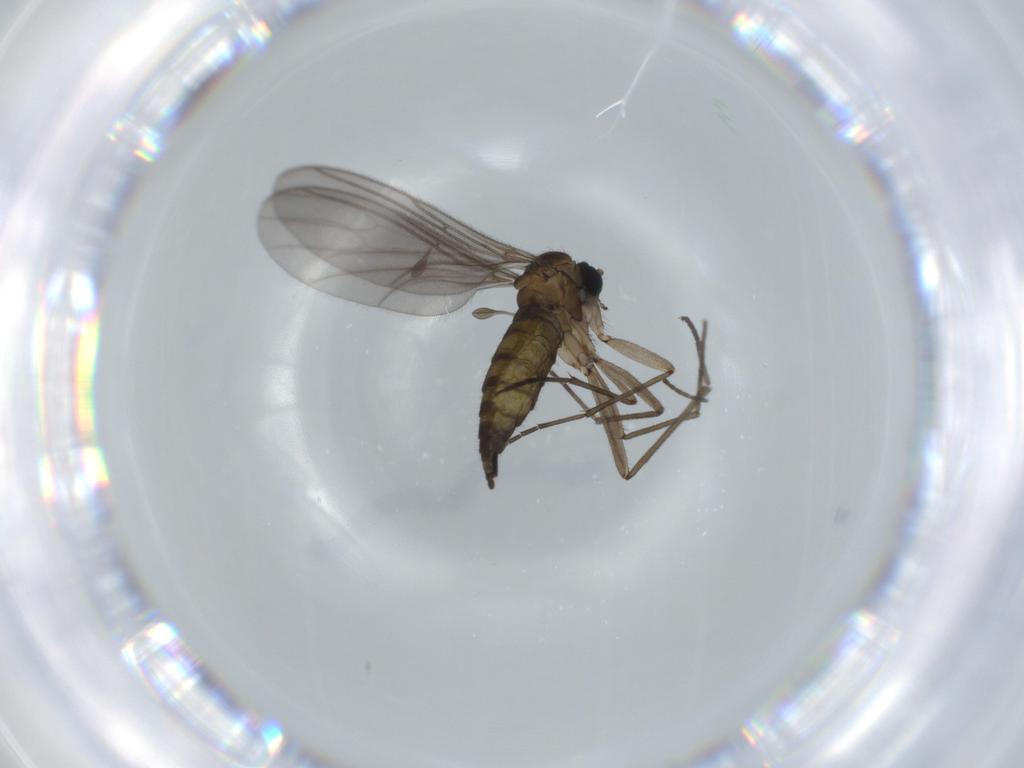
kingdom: Animalia
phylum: Arthropoda
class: Insecta
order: Diptera
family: Sciaridae
